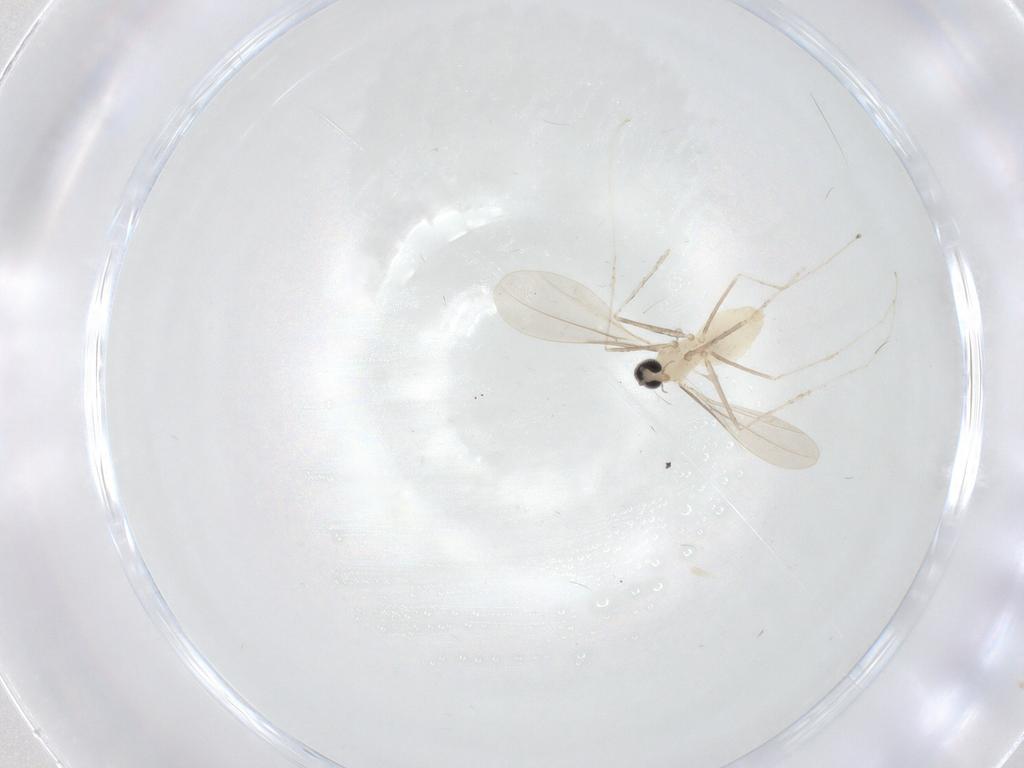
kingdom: Animalia
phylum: Arthropoda
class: Insecta
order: Diptera
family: Cecidomyiidae
